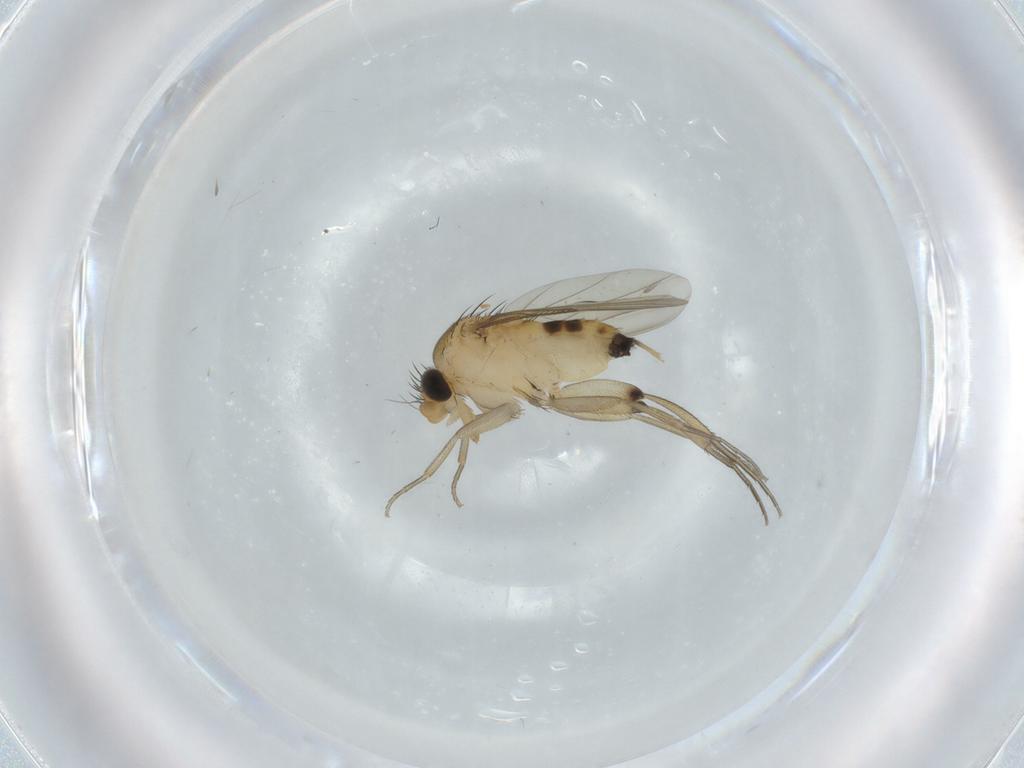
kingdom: Animalia
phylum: Arthropoda
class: Insecta
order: Diptera
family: Phoridae
